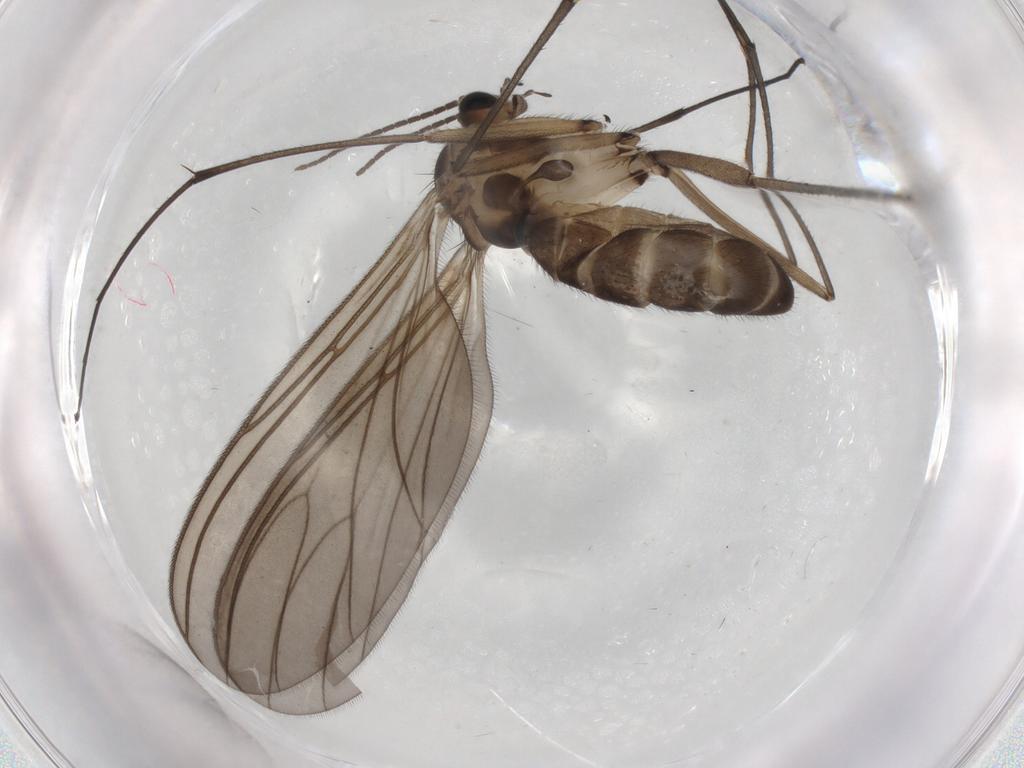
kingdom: Animalia
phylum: Arthropoda
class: Insecta
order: Diptera
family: Sciaridae
